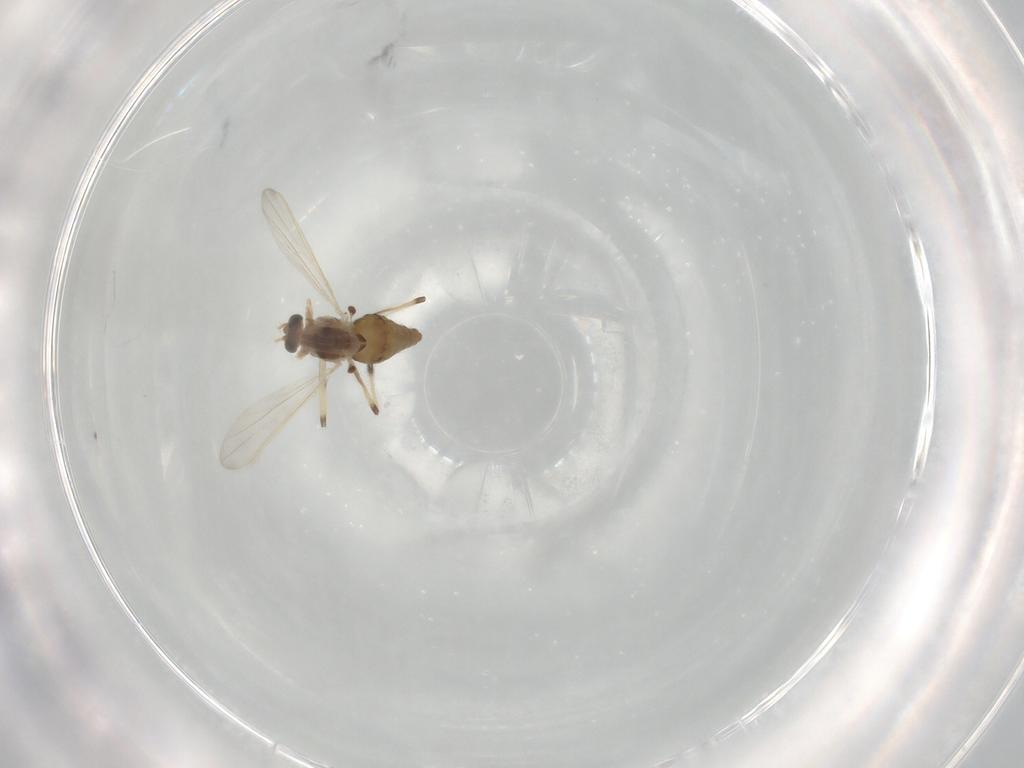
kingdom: Animalia
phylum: Arthropoda
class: Insecta
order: Diptera
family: Chironomidae
